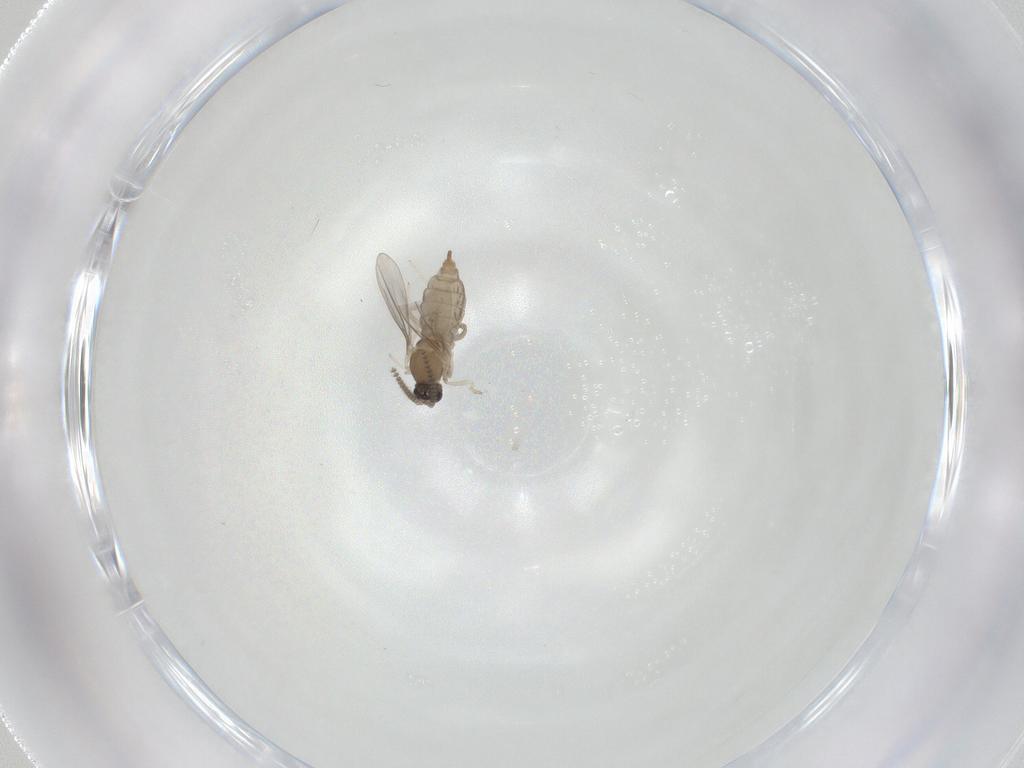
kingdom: Animalia
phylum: Arthropoda
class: Insecta
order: Diptera
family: Cecidomyiidae
